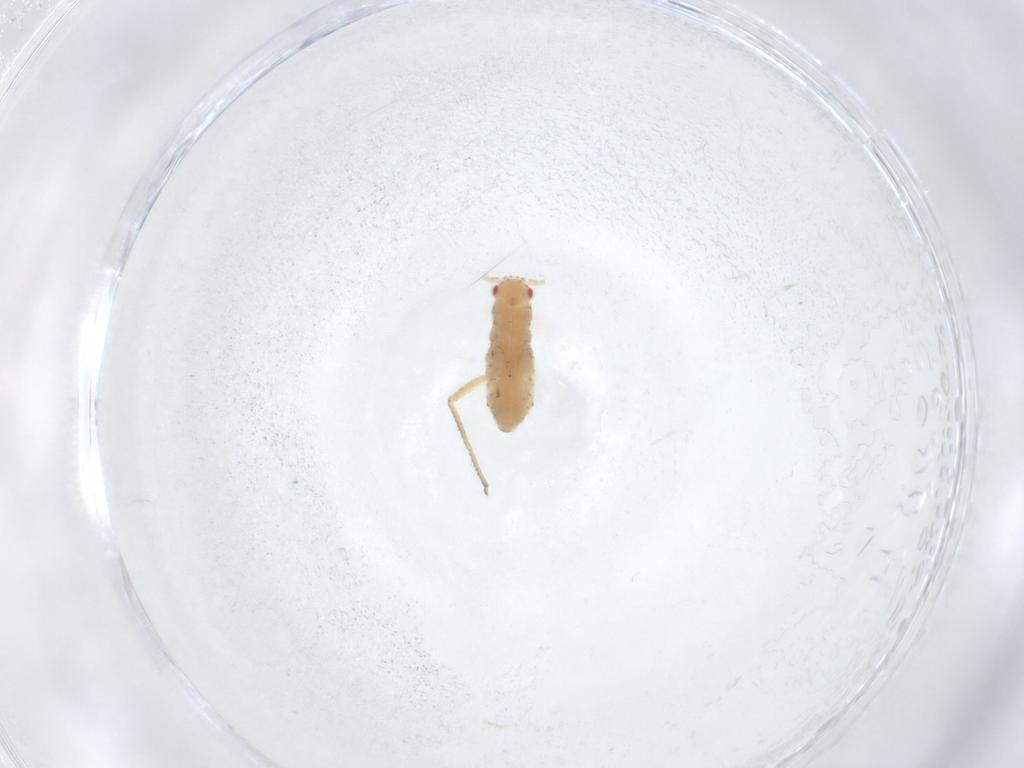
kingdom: Animalia
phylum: Arthropoda
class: Insecta
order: Hemiptera
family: Aphididae
